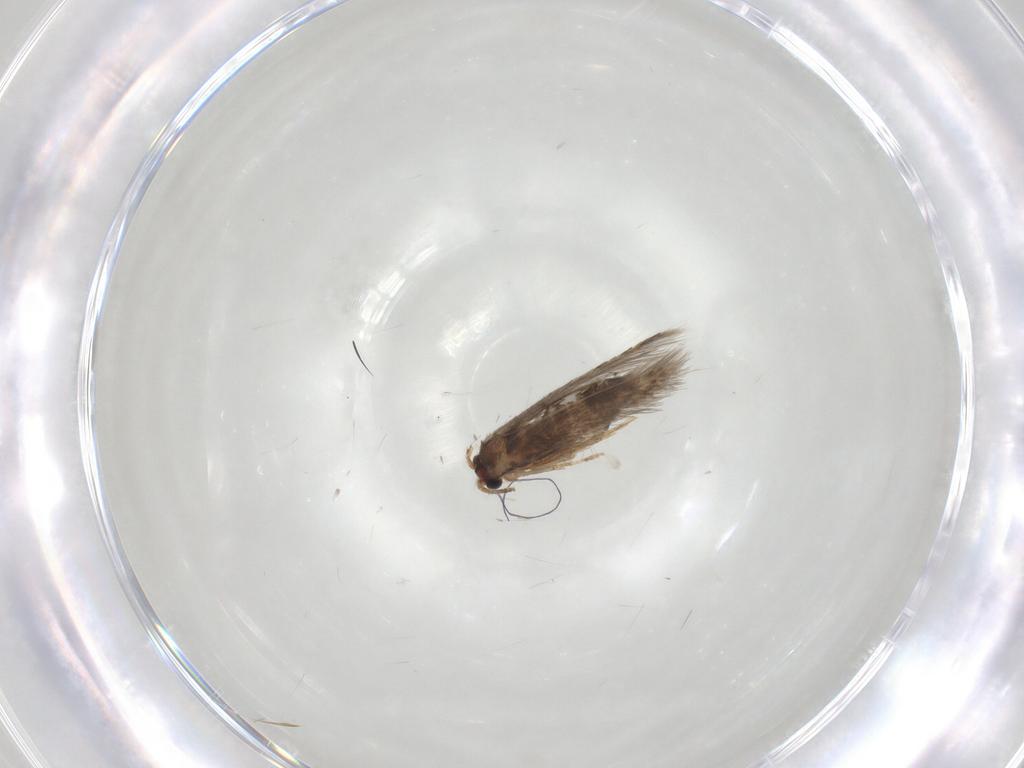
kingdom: Animalia
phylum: Arthropoda
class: Insecta
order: Lepidoptera
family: Nepticulidae
